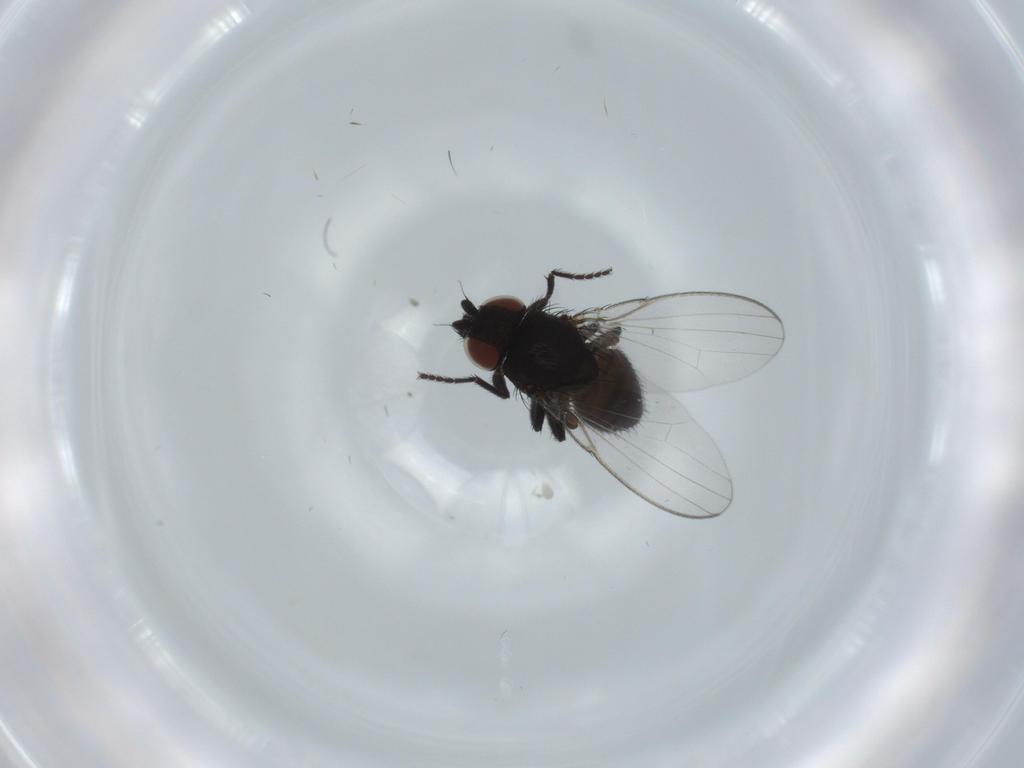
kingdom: Animalia
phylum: Arthropoda
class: Insecta
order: Diptera
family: Milichiidae
